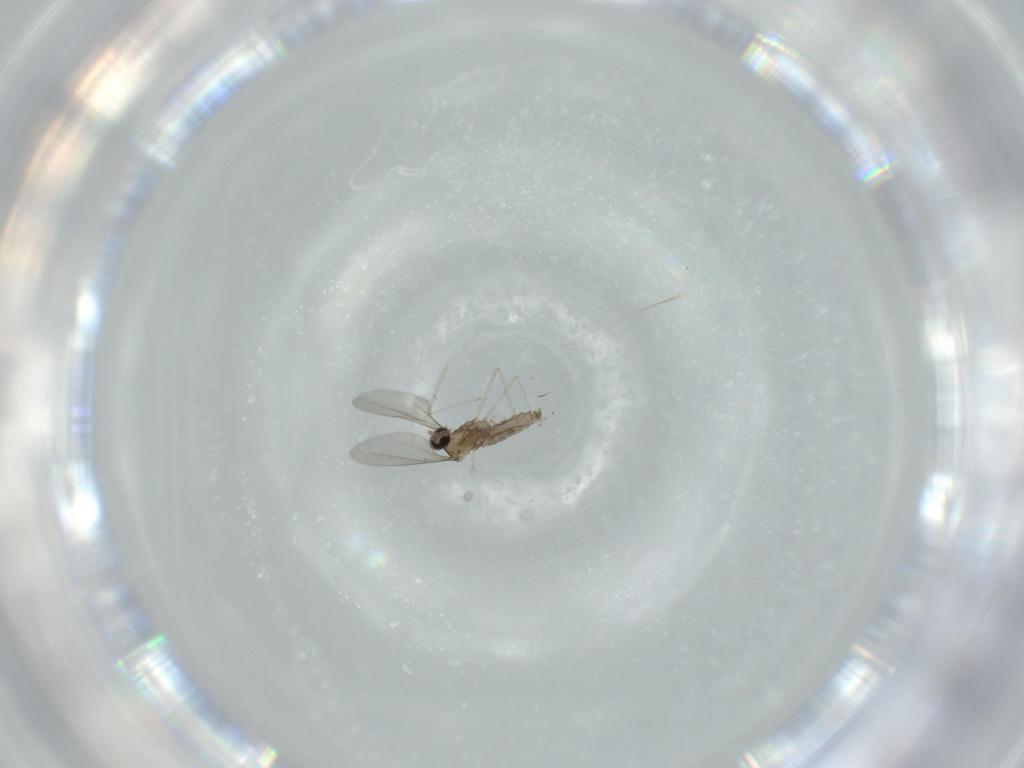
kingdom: Animalia
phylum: Arthropoda
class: Insecta
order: Diptera
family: Cecidomyiidae
